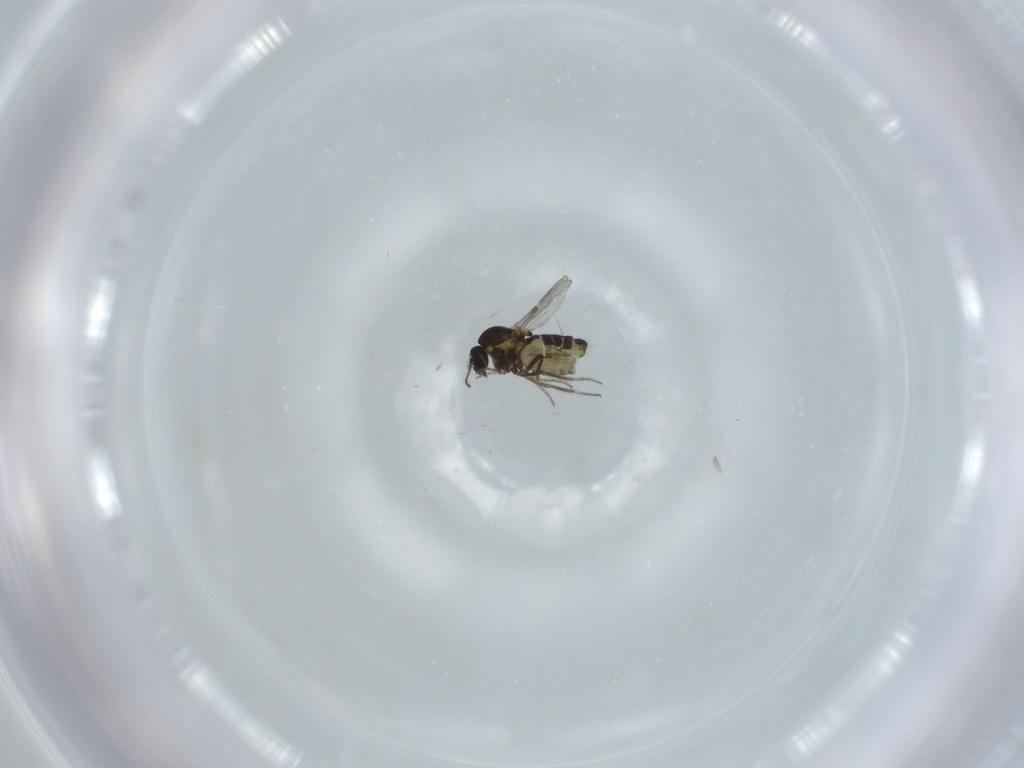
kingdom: Animalia
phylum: Arthropoda
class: Insecta
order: Diptera
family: Ceratopogonidae
